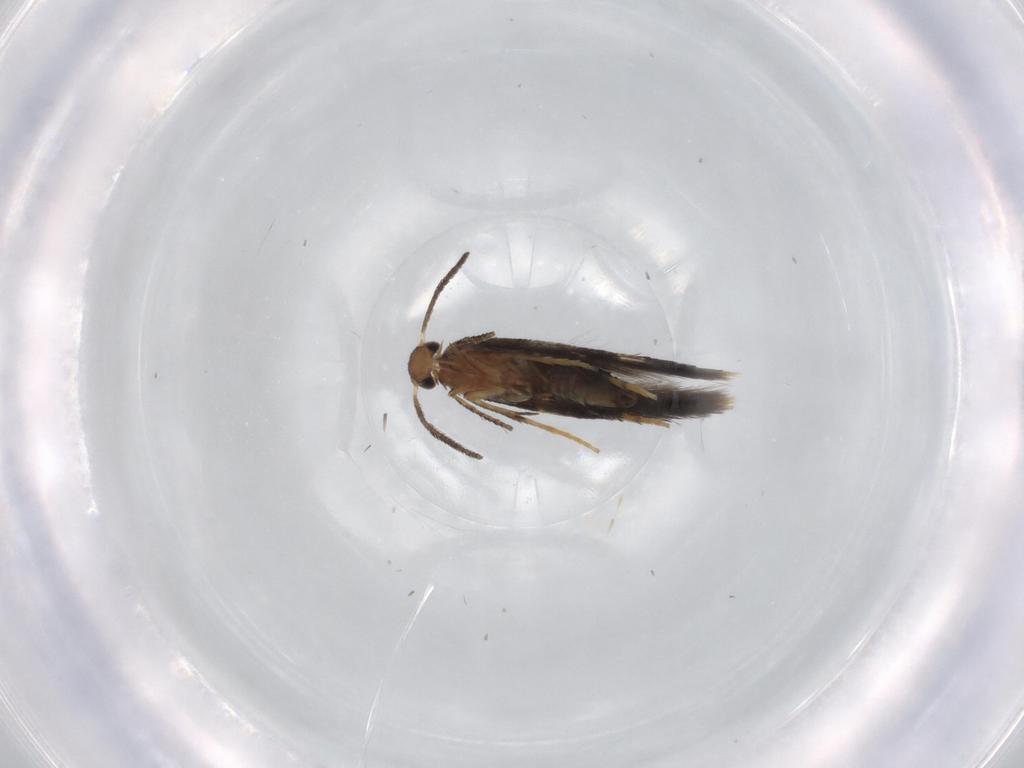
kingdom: Animalia
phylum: Arthropoda
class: Insecta
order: Lepidoptera
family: Heliozelidae
